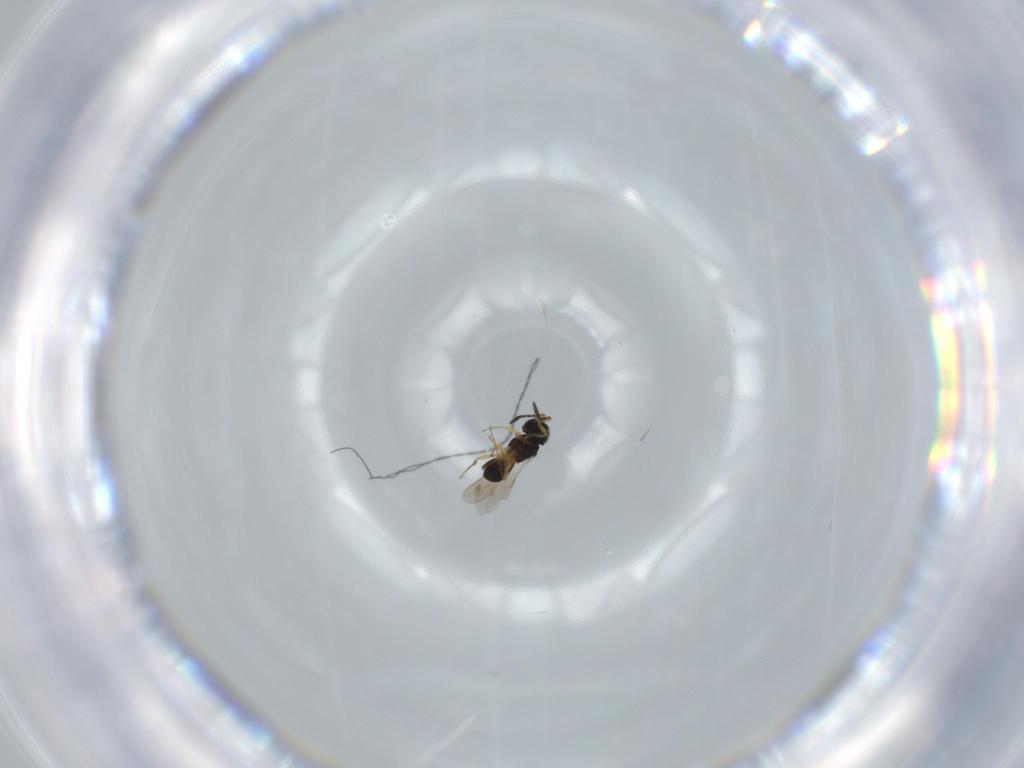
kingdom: Animalia
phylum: Arthropoda
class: Insecta
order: Hymenoptera
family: Scelionidae
